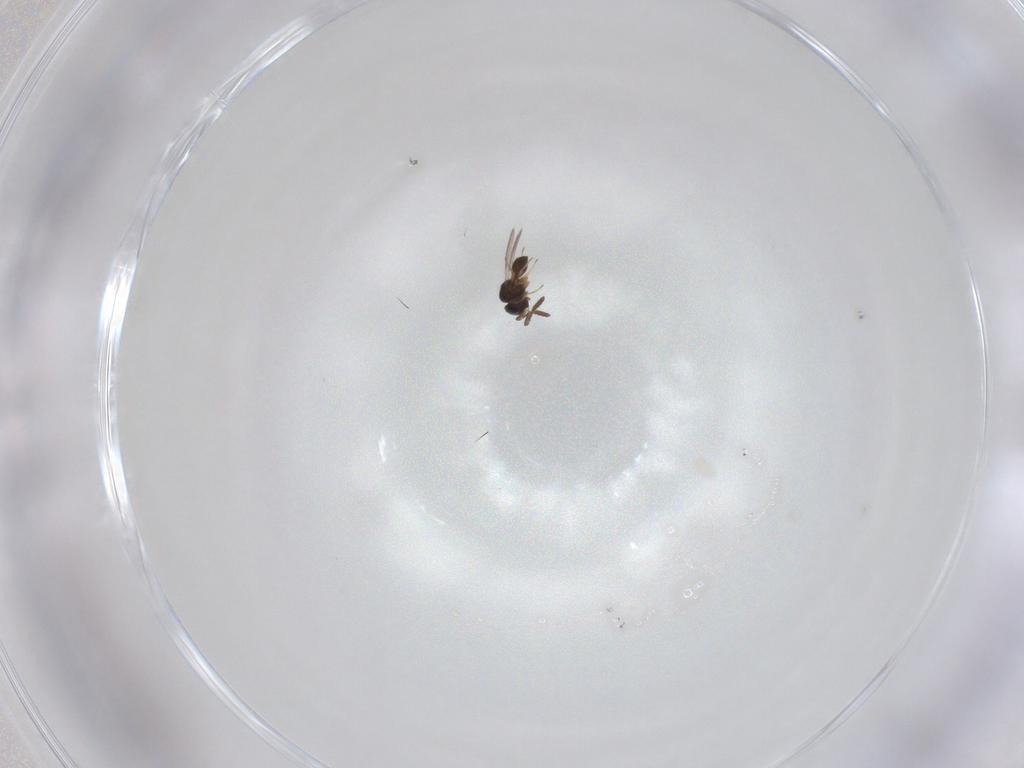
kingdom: Animalia
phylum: Arthropoda
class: Insecta
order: Hymenoptera
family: Scelionidae
